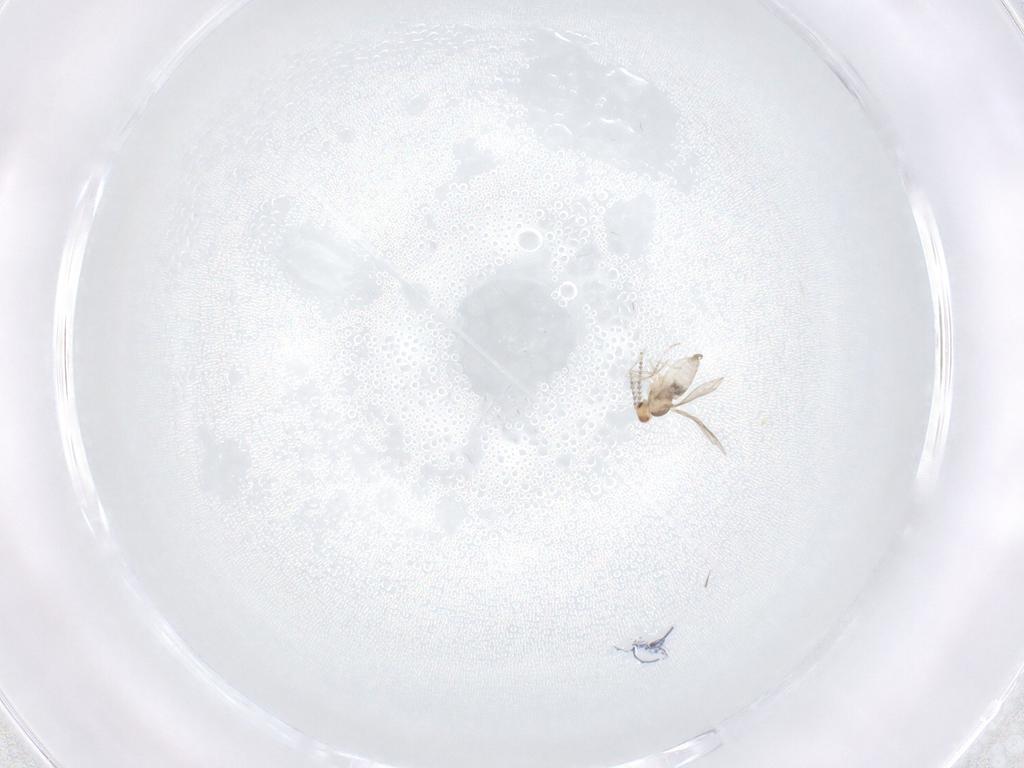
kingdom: Animalia
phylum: Arthropoda
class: Insecta
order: Diptera
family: Cecidomyiidae
